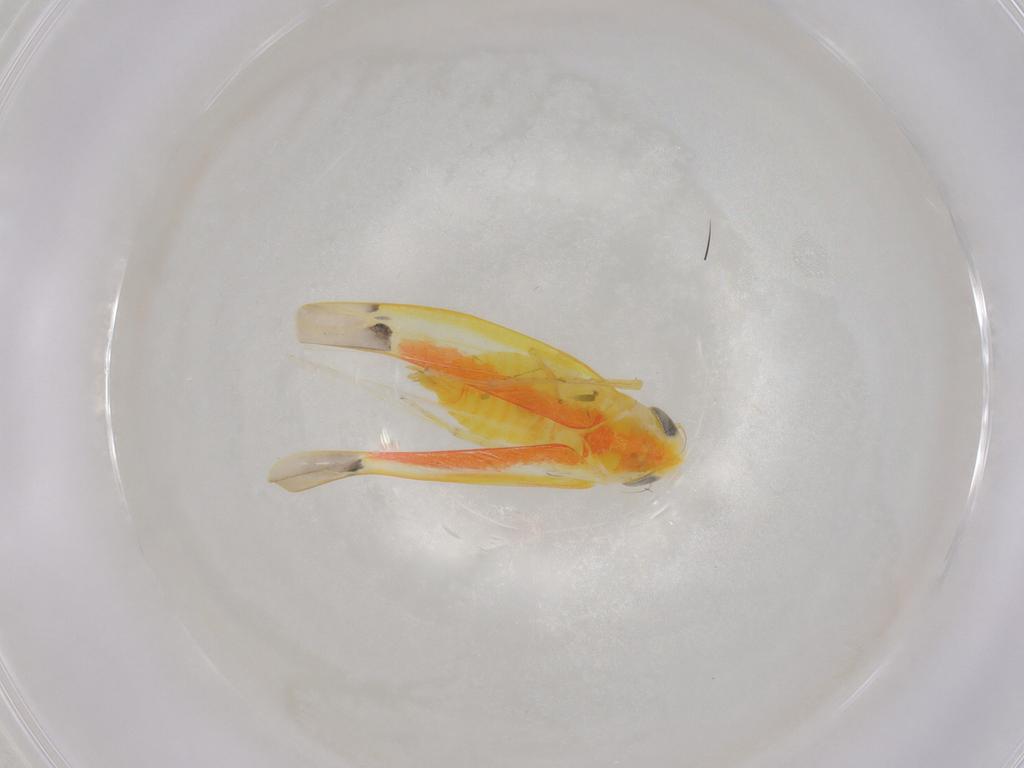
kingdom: Animalia
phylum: Arthropoda
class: Insecta
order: Hemiptera
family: Cicadellidae
